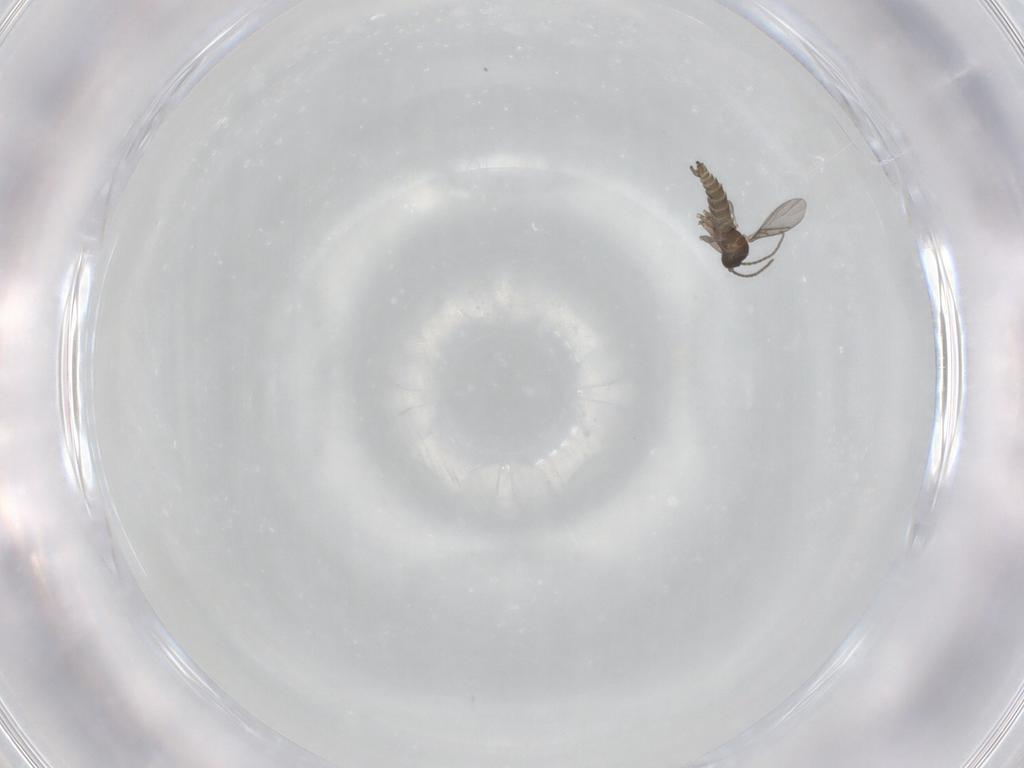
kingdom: Animalia
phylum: Arthropoda
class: Insecta
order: Diptera
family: Sciaridae
